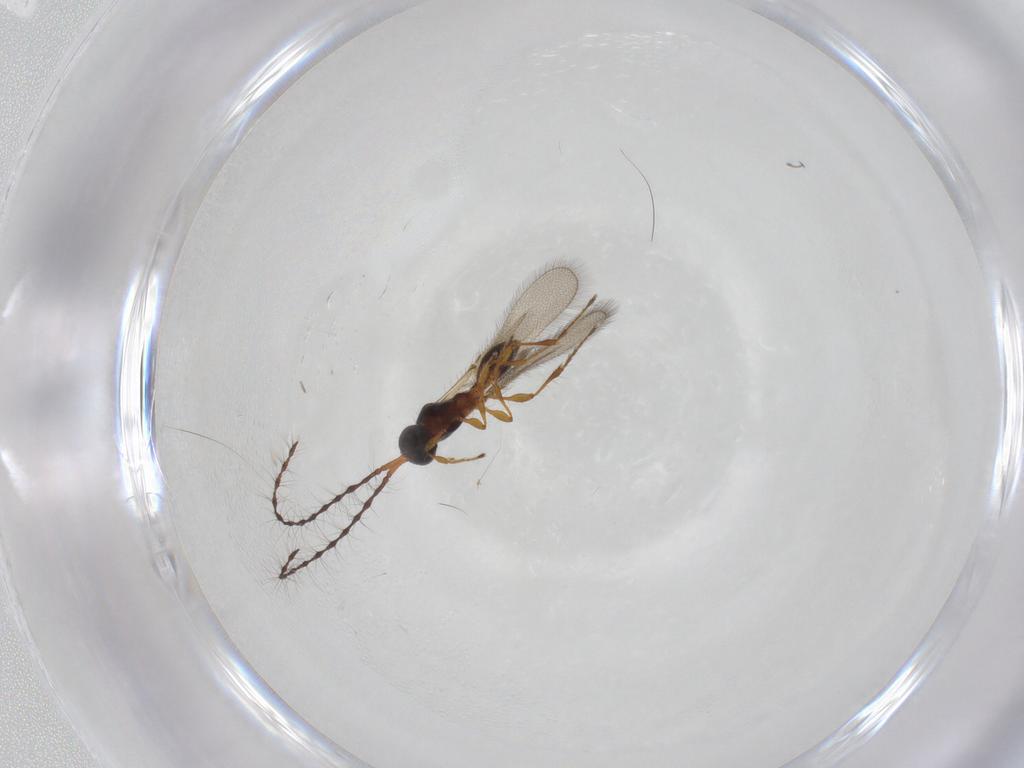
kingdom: Animalia
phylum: Arthropoda
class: Insecta
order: Hymenoptera
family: Diapriidae
